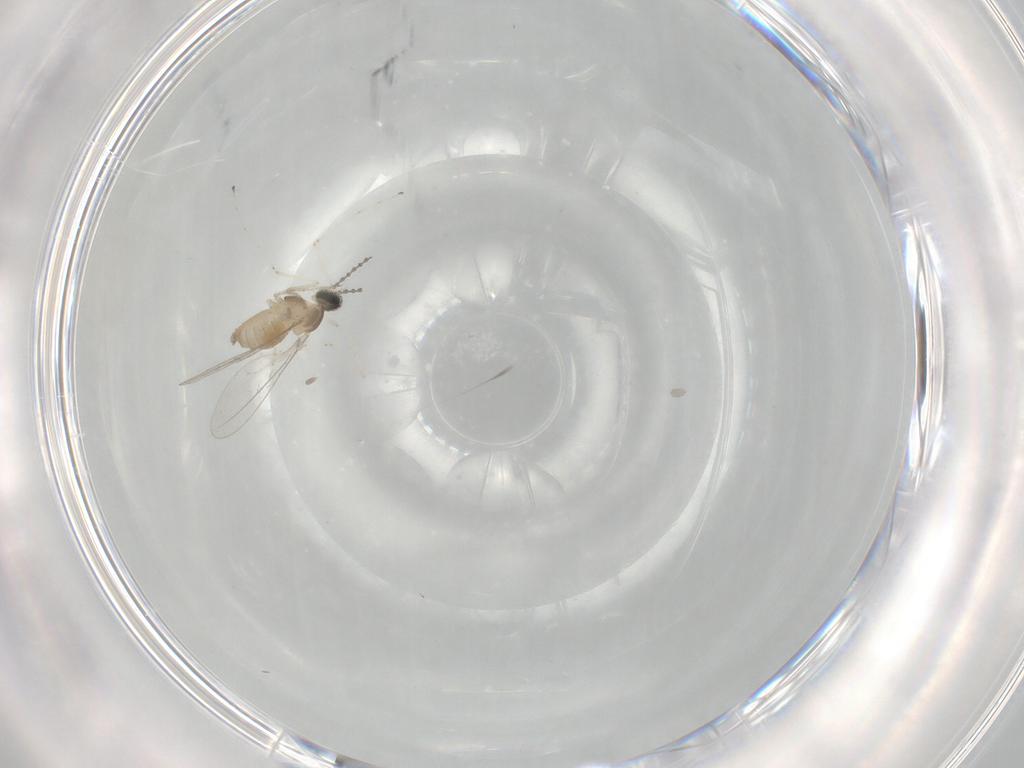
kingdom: Animalia
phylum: Arthropoda
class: Insecta
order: Diptera
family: Cecidomyiidae
